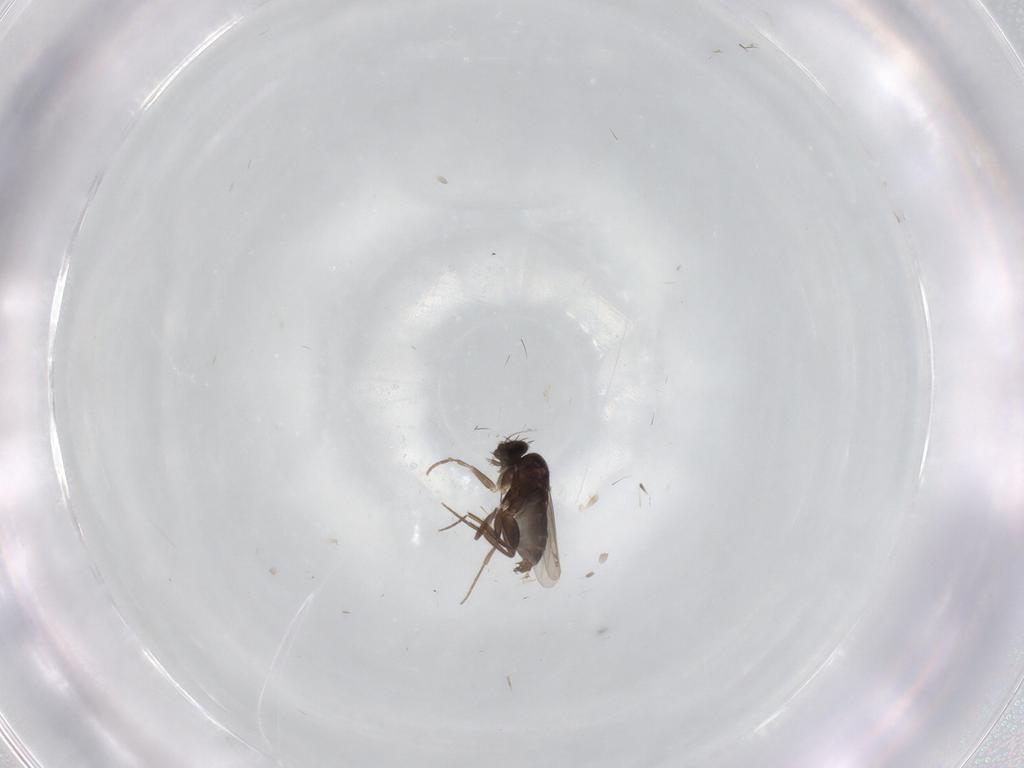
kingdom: Animalia
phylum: Arthropoda
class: Insecta
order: Diptera
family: Phoridae
